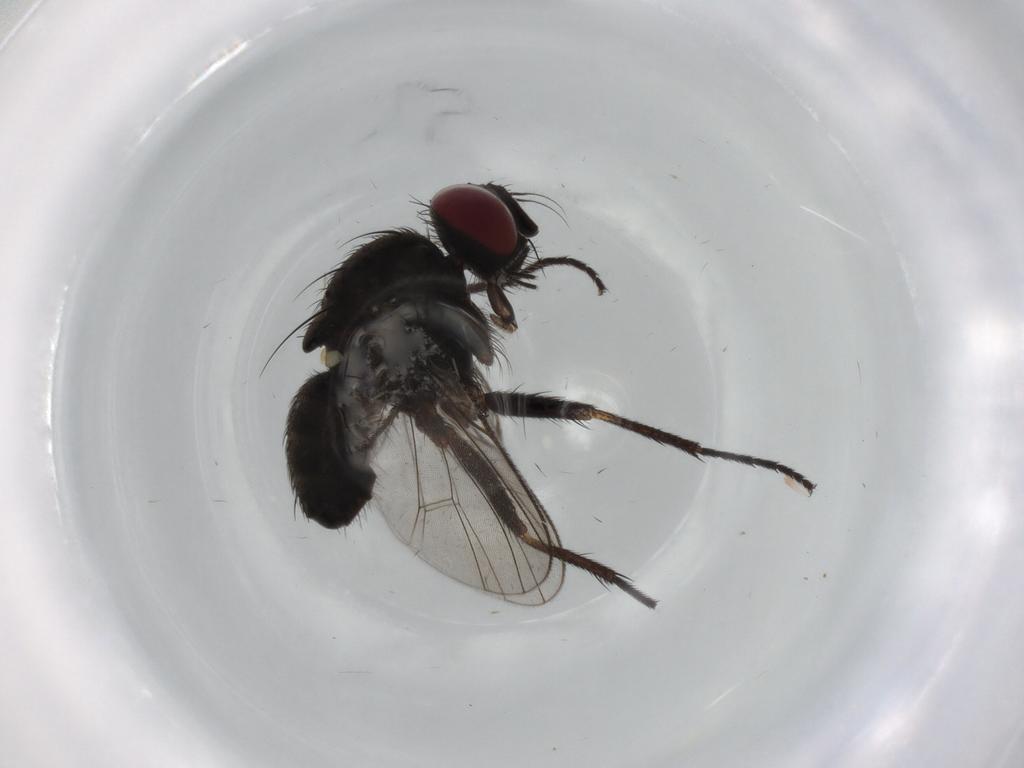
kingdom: Animalia
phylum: Arthropoda
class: Insecta
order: Diptera
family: Muscidae
